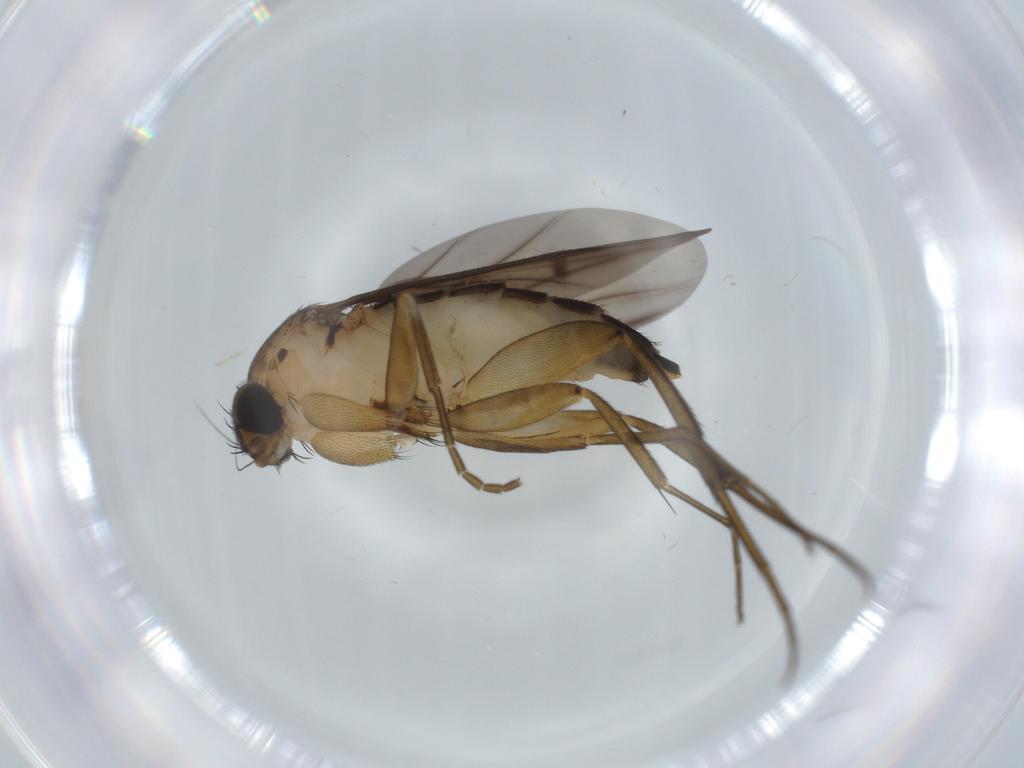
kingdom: Animalia
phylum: Arthropoda
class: Insecta
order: Diptera
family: Phoridae
